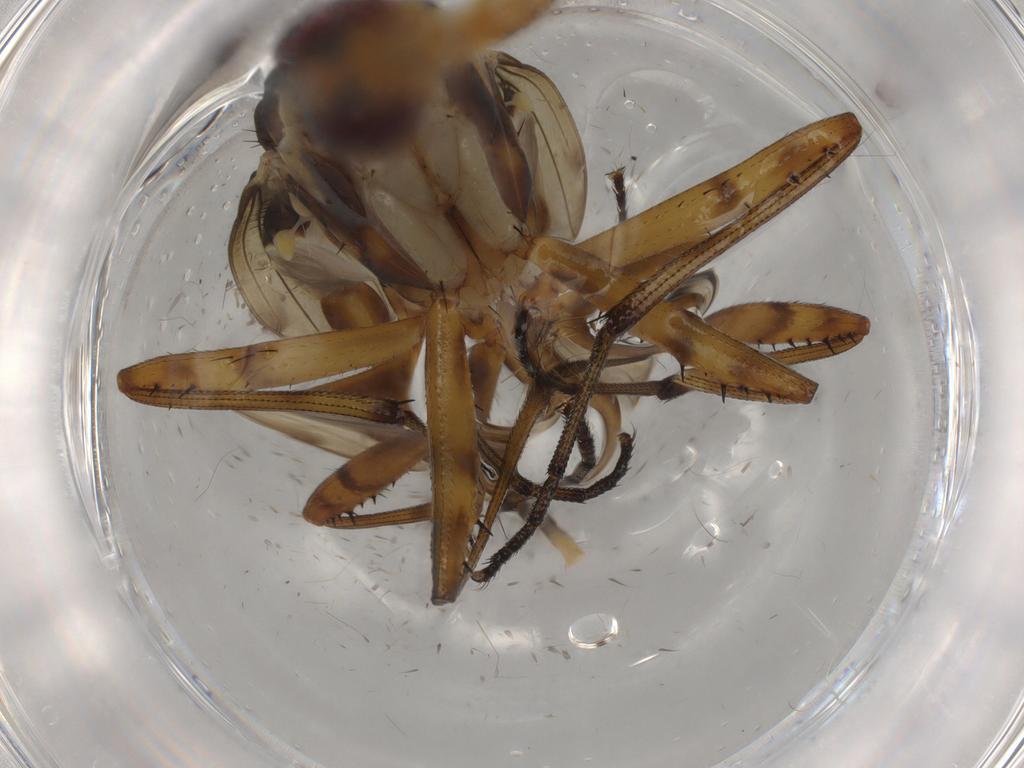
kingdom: Animalia
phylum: Arthropoda
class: Insecta
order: Diptera
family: Neriidae
